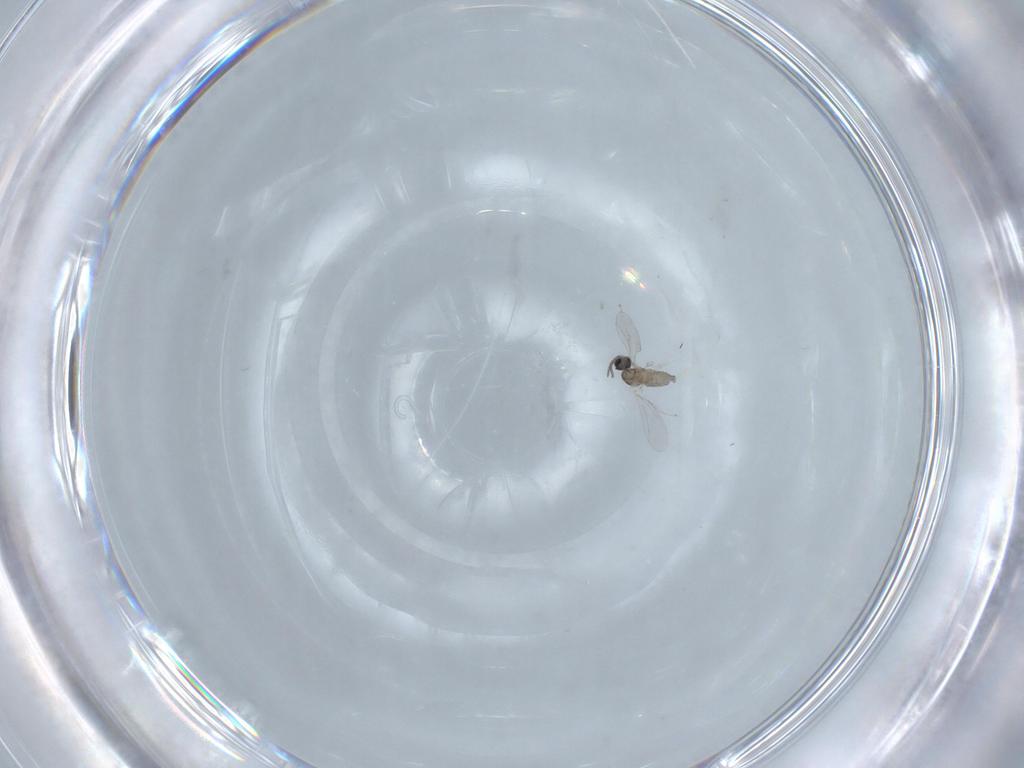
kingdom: Animalia
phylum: Arthropoda
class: Insecta
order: Diptera
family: Cecidomyiidae
